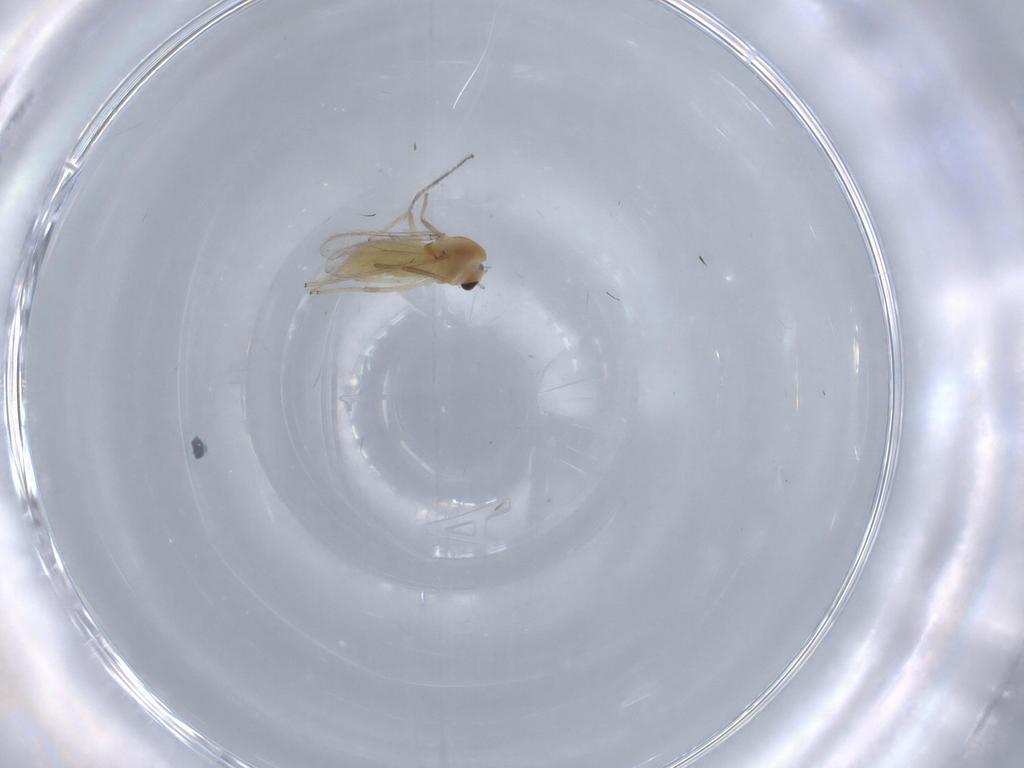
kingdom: Animalia
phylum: Arthropoda
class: Insecta
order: Diptera
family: Chironomidae
